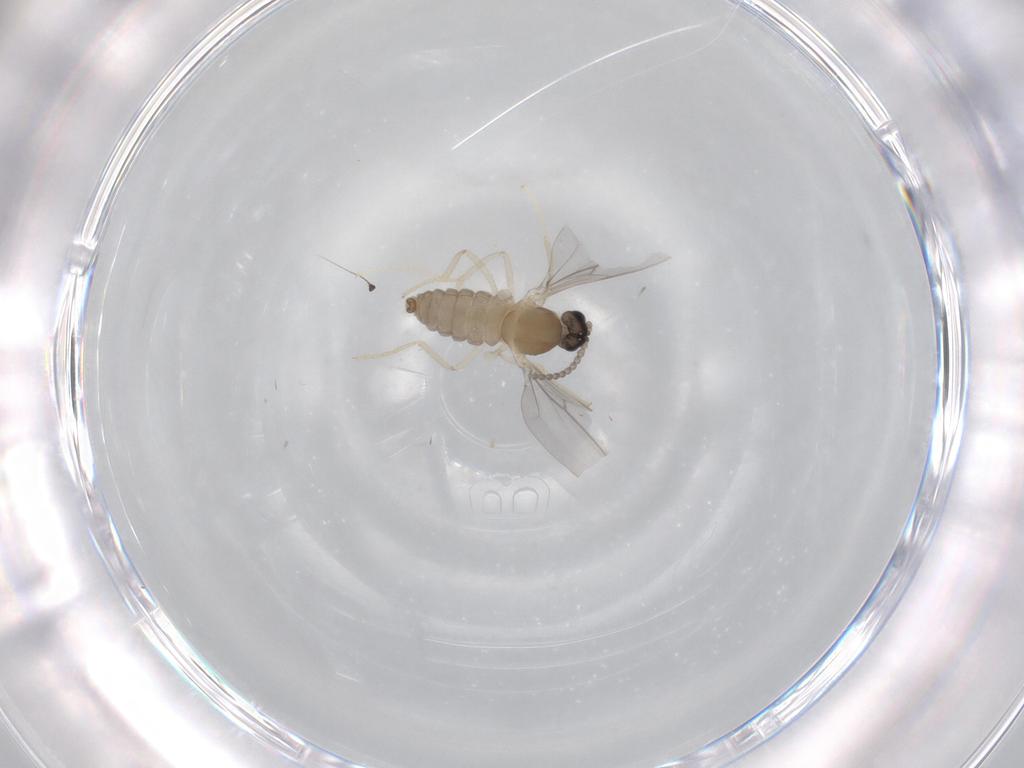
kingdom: Animalia
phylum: Arthropoda
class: Insecta
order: Diptera
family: Cecidomyiidae
